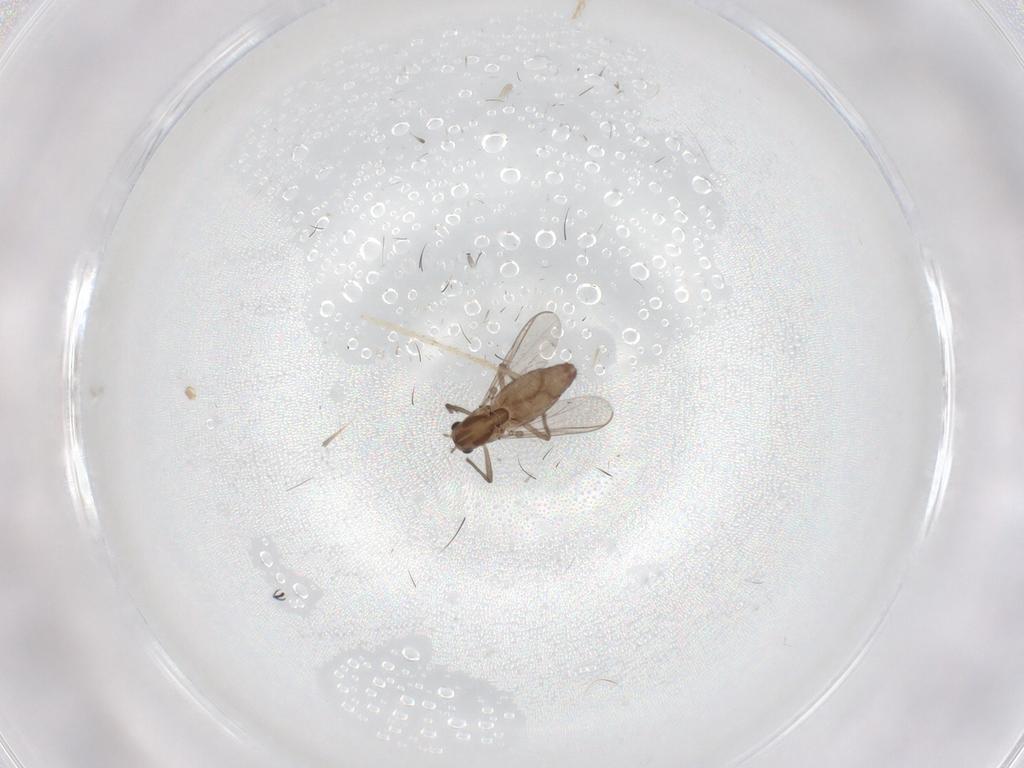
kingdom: Animalia
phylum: Arthropoda
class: Insecta
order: Diptera
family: Chironomidae
